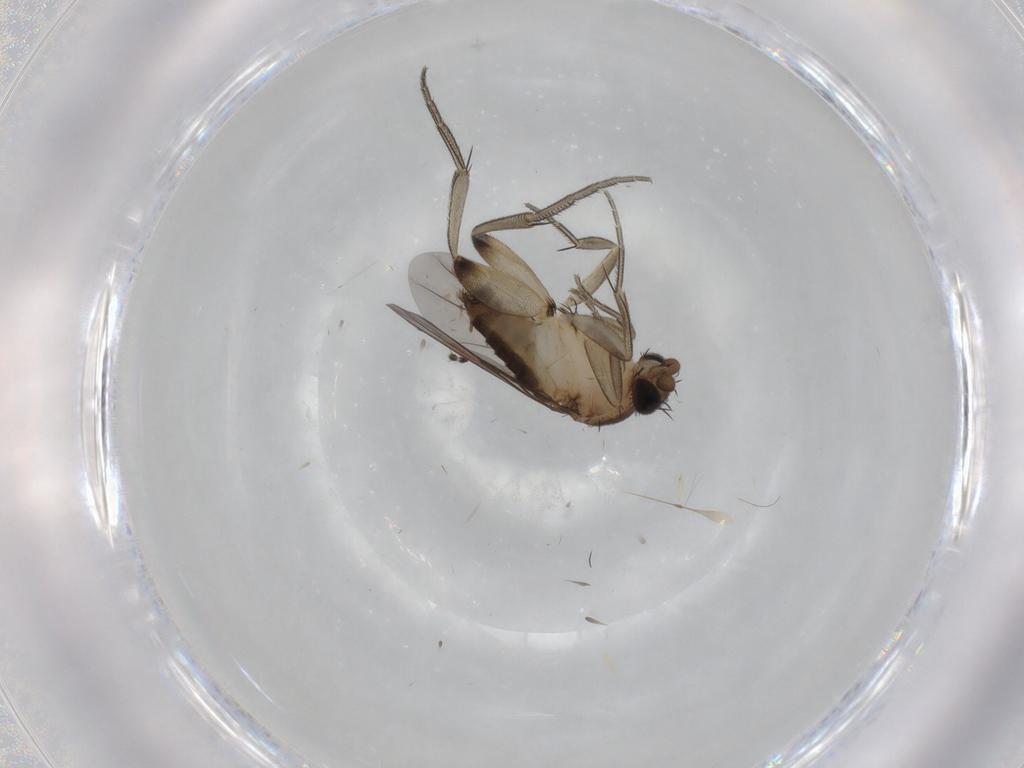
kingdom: Animalia
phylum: Arthropoda
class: Insecta
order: Diptera
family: Phoridae
